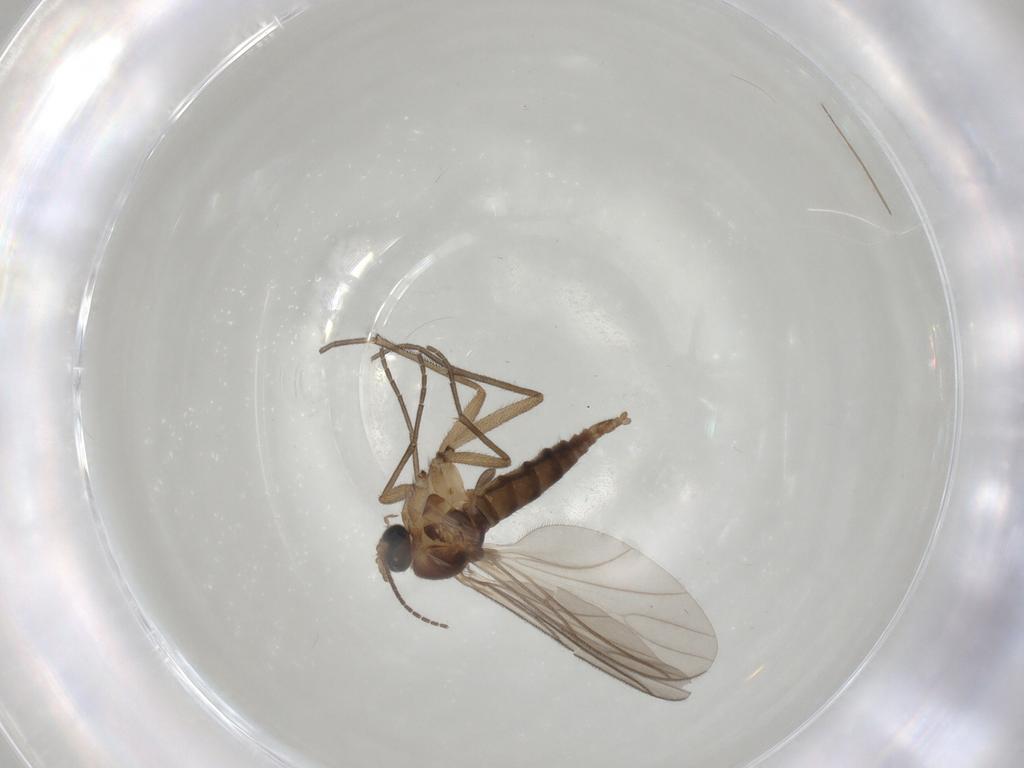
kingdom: Animalia
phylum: Arthropoda
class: Insecta
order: Diptera
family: Sciaridae
